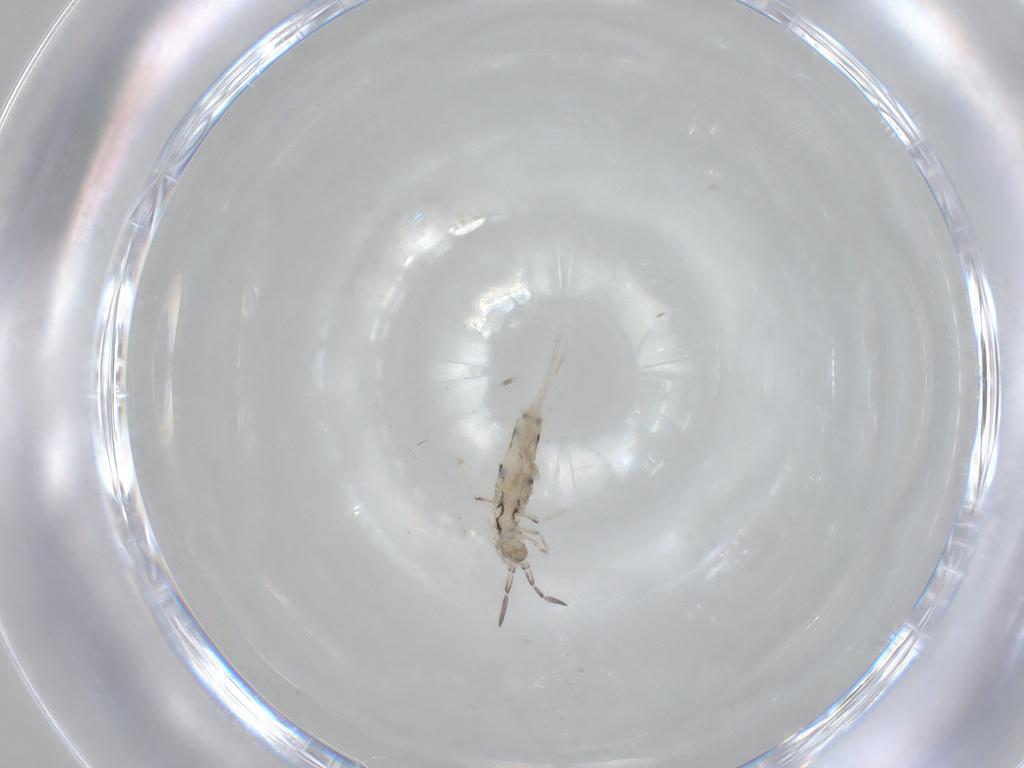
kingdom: Animalia
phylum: Arthropoda
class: Collembola
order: Entomobryomorpha
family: Entomobryidae
